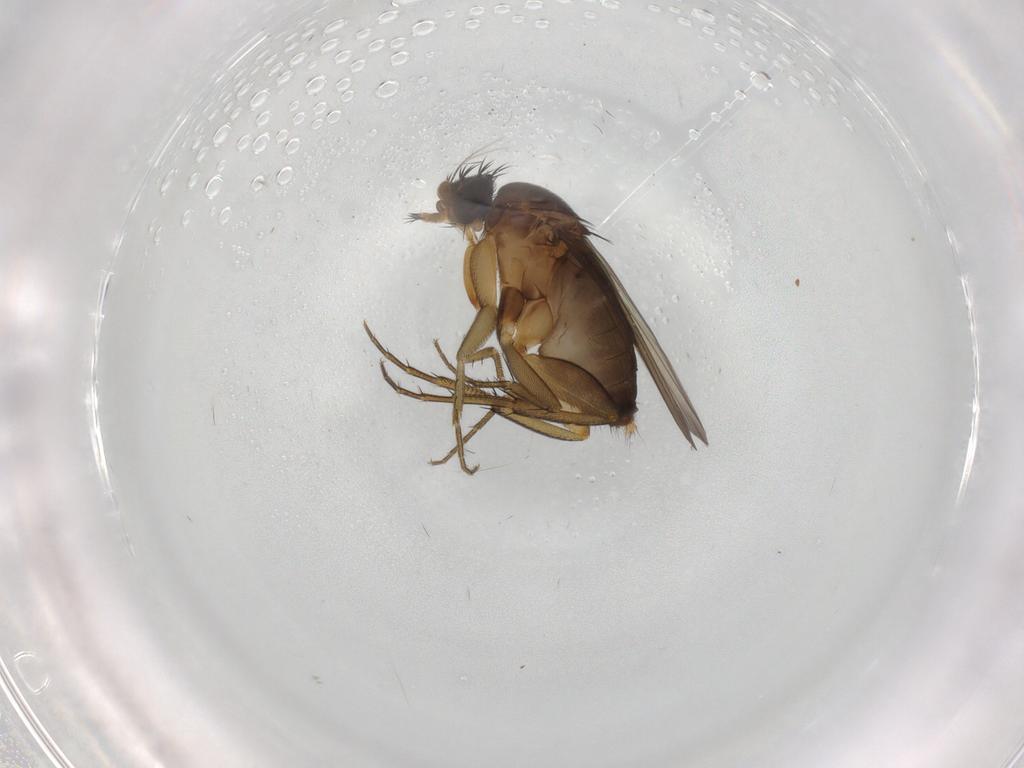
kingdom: Animalia
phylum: Arthropoda
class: Insecta
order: Diptera
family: Phoridae
